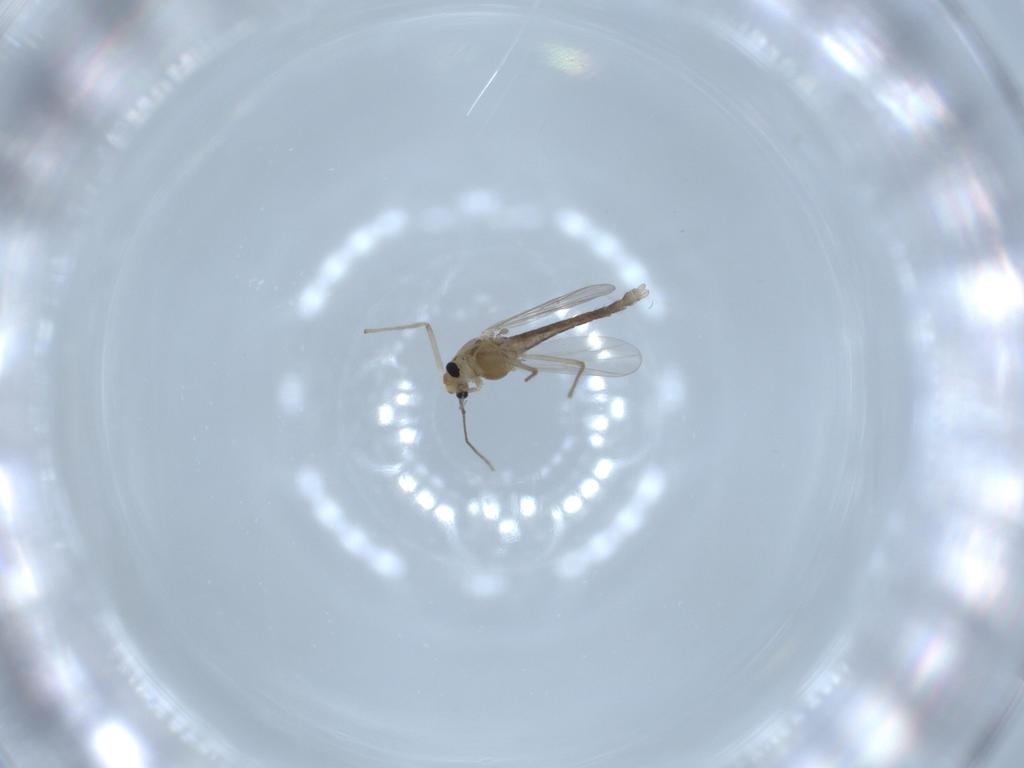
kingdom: Animalia
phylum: Arthropoda
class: Insecta
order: Diptera
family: Chironomidae
